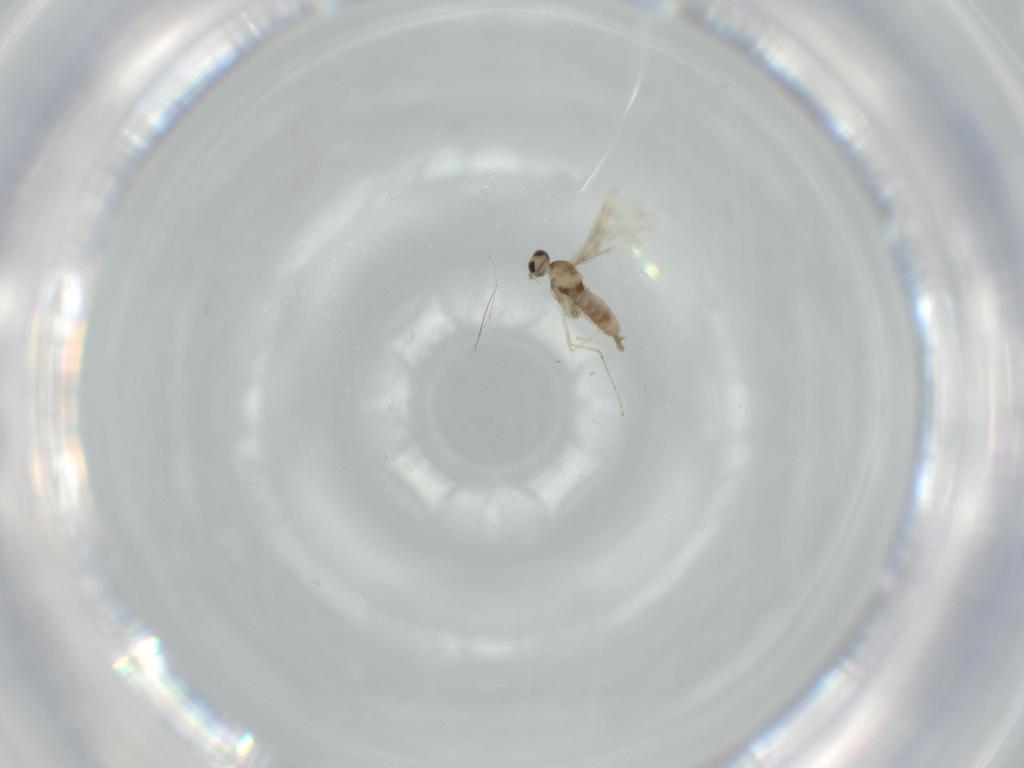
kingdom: Animalia
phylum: Arthropoda
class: Insecta
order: Diptera
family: Cecidomyiidae
